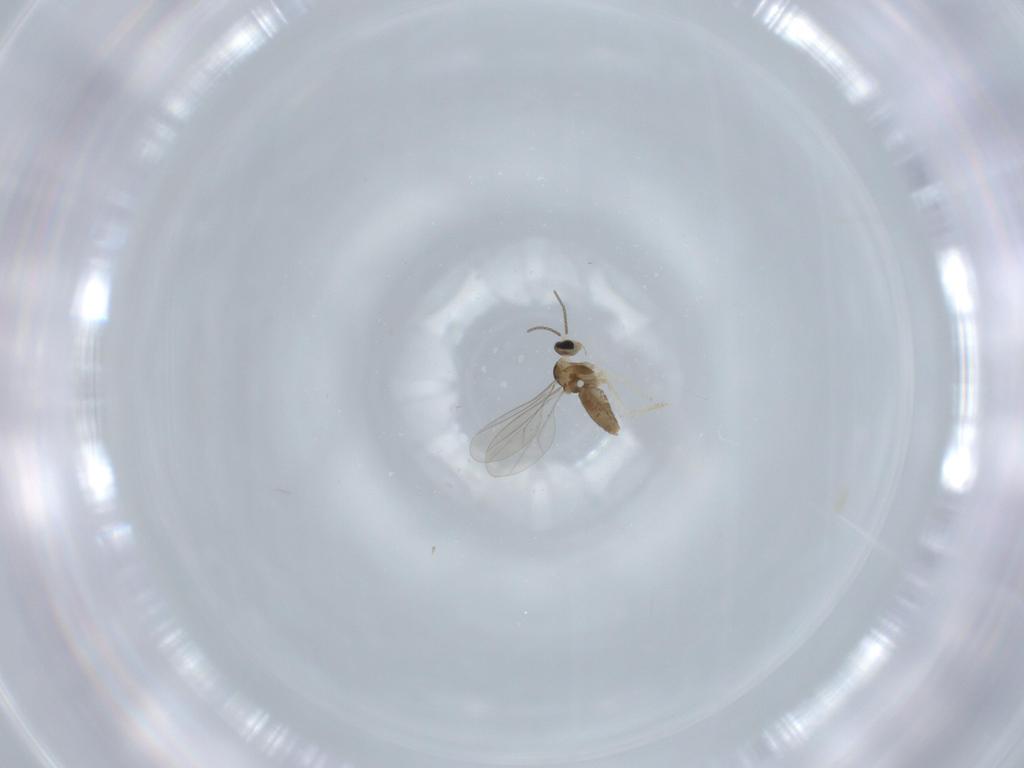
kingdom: Animalia
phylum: Arthropoda
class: Insecta
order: Diptera
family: Cecidomyiidae
